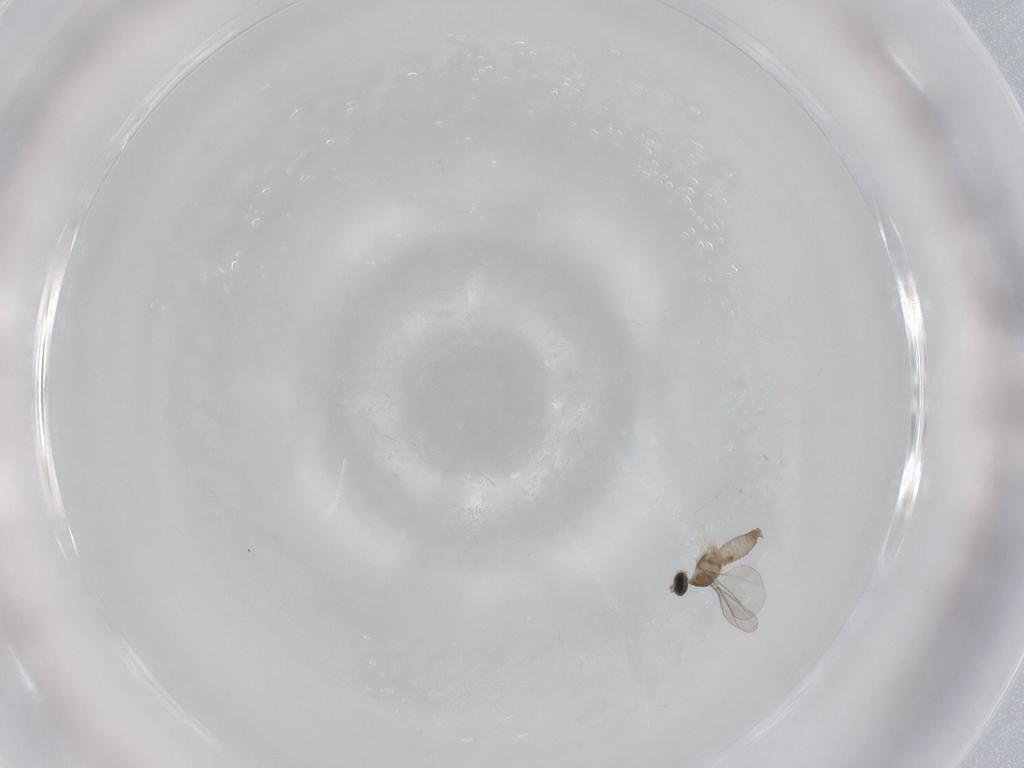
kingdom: Animalia
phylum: Arthropoda
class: Insecta
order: Diptera
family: Cecidomyiidae
